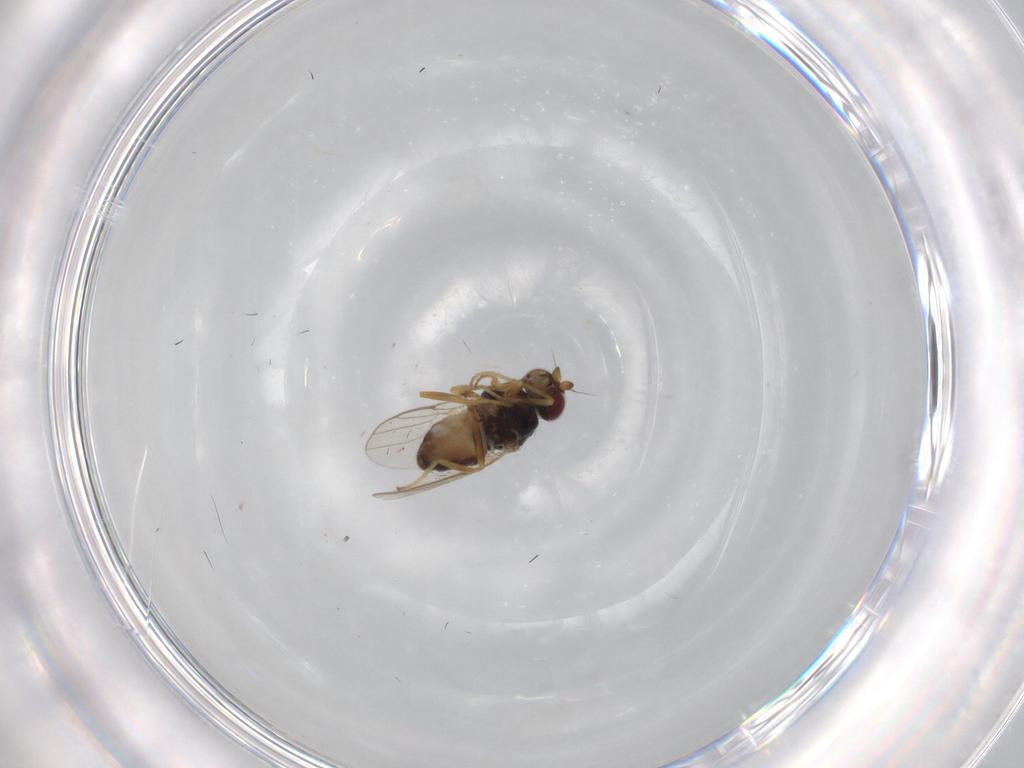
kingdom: Animalia
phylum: Arthropoda
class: Insecta
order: Diptera
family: Chloropidae
